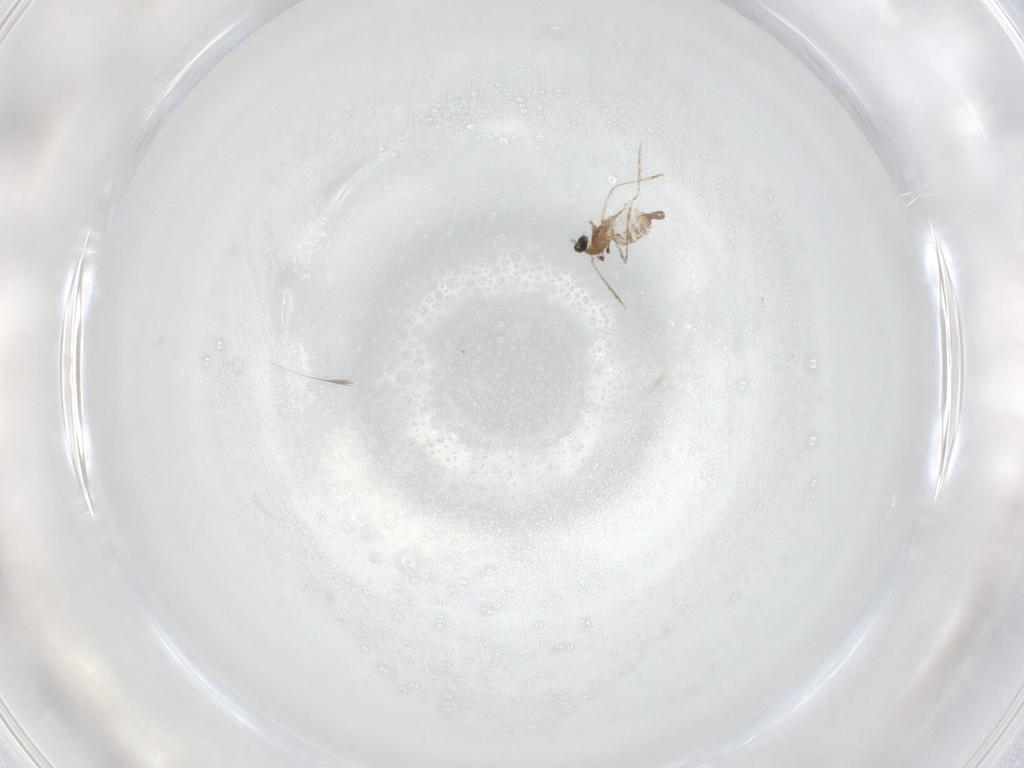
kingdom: Animalia
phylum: Arthropoda
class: Insecta
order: Diptera
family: Cecidomyiidae
